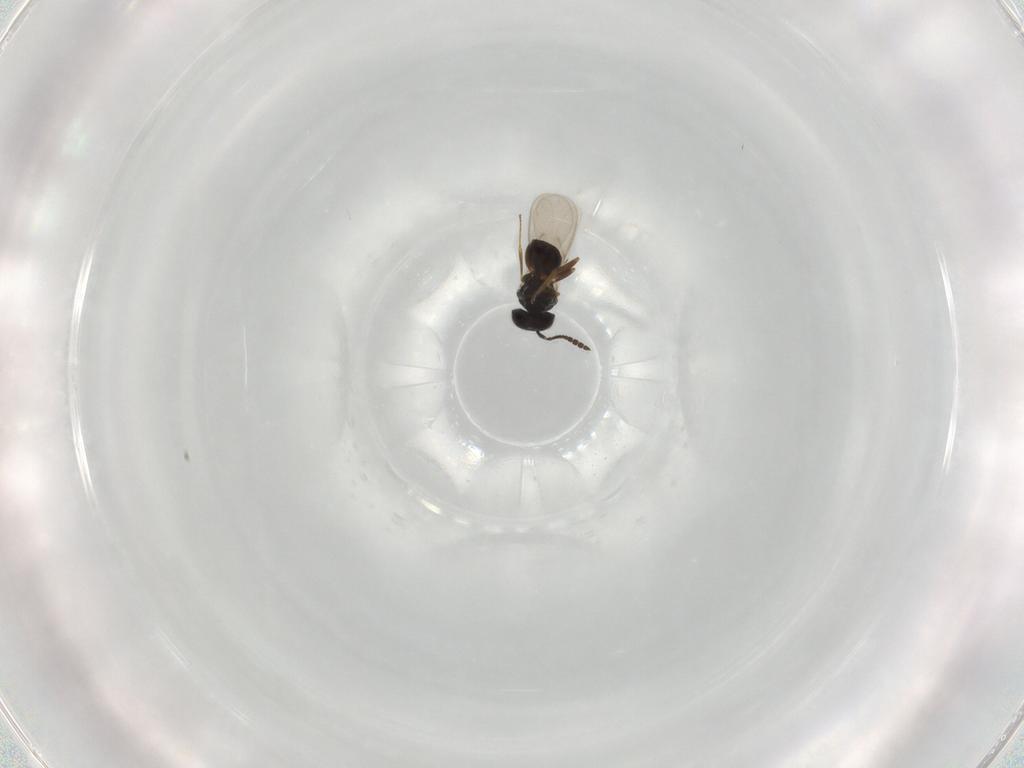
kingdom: Animalia
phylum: Arthropoda
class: Insecta
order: Hymenoptera
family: Scelionidae
